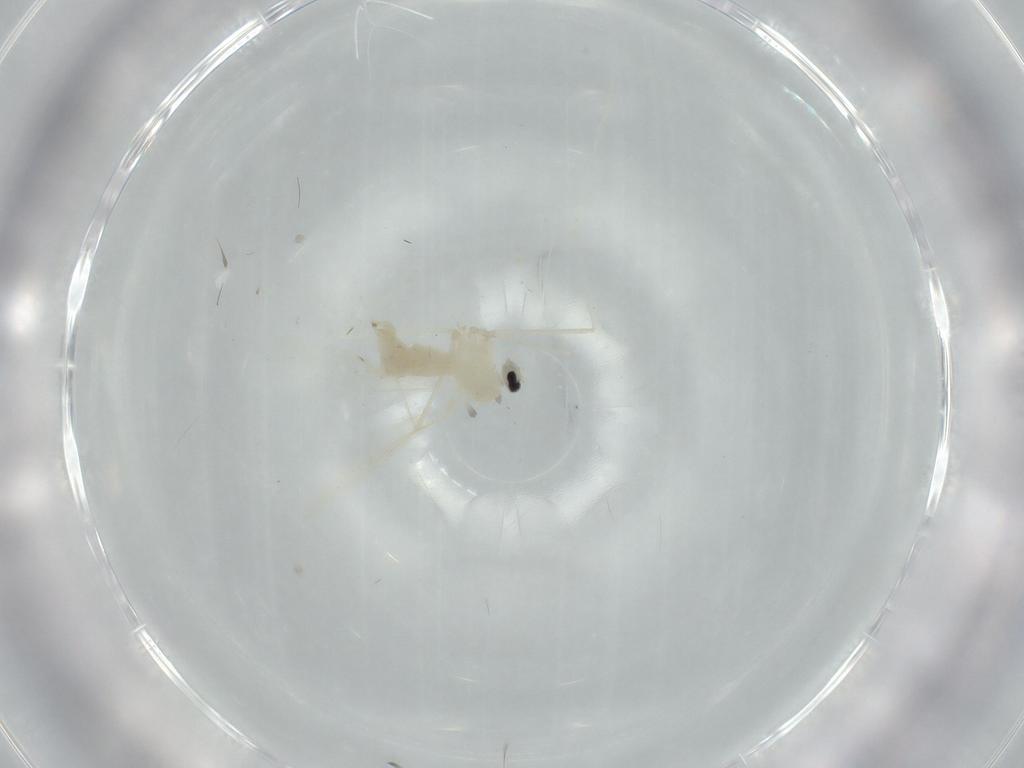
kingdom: Animalia
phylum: Arthropoda
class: Insecta
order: Diptera
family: Cecidomyiidae
